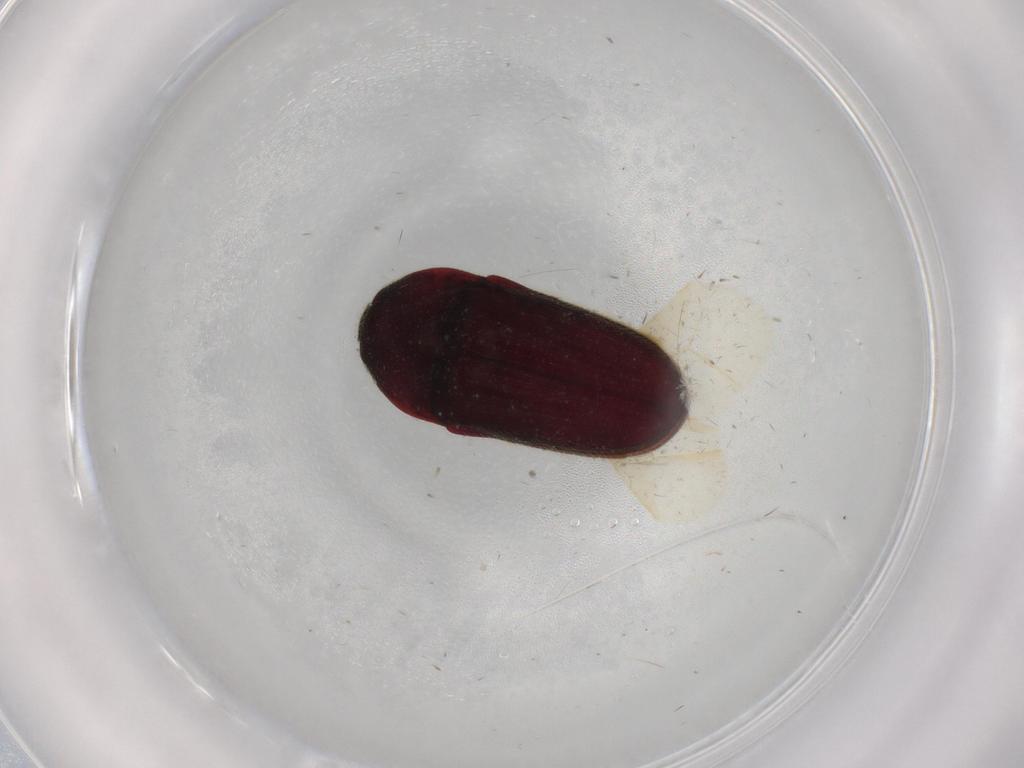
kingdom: Animalia
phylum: Arthropoda
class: Insecta
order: Coleoptera
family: Throscidae
